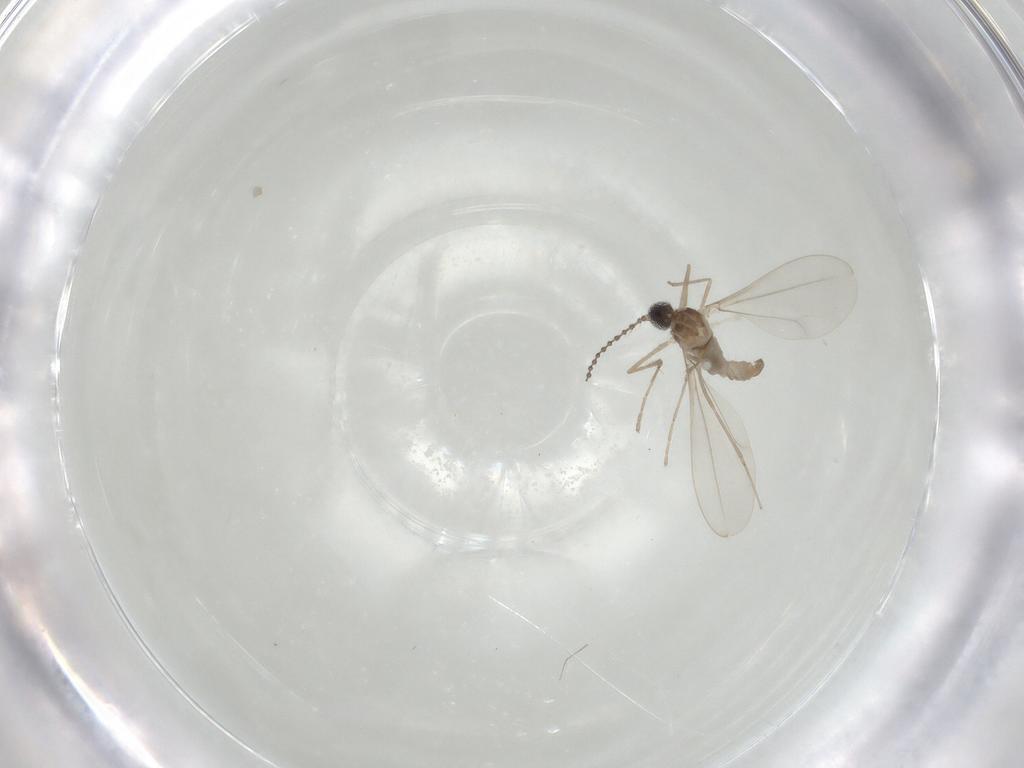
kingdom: Animalia
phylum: Arthropoda
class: Insecta
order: Diptera
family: Cecidomyiidae
